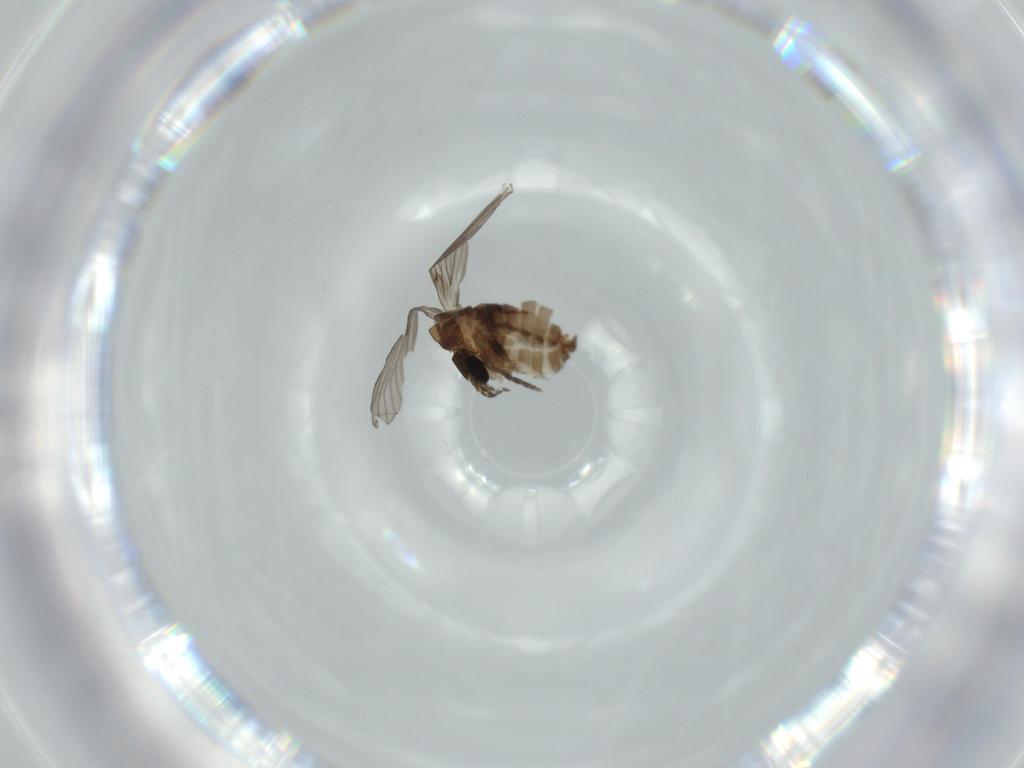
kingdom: Animalia
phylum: Arthropoda
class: Insecta
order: Diptera
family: Psychodidae
